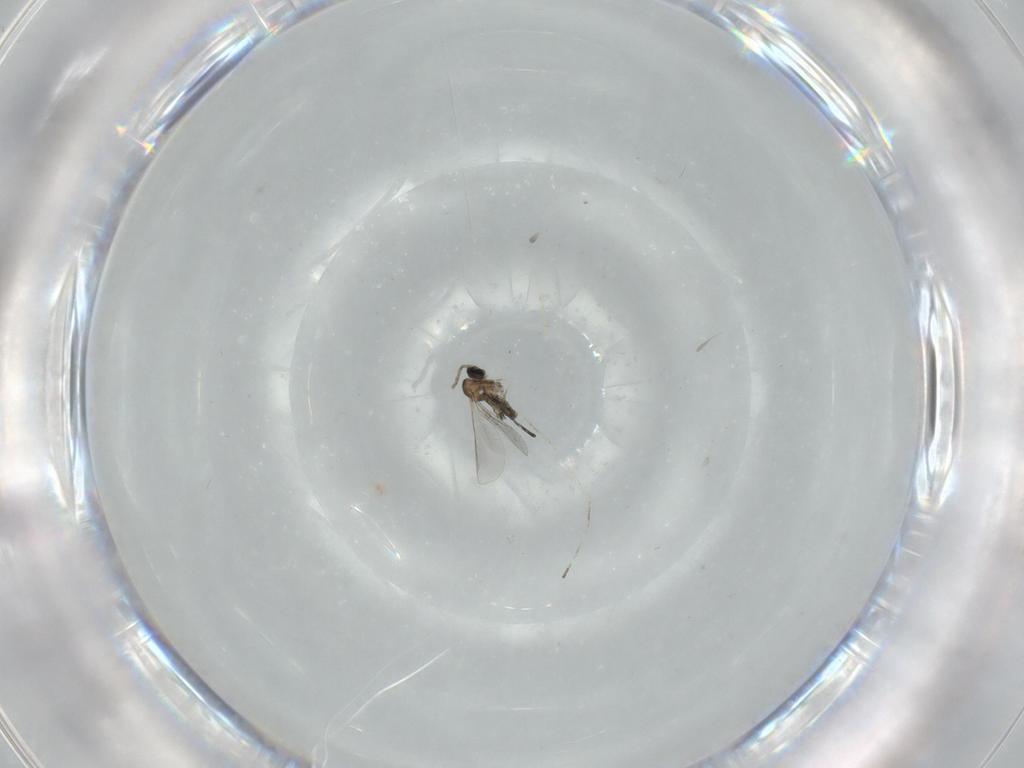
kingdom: Animalia
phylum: Arthropoda
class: Insecta
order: Diptera
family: Cecidomyiidae
